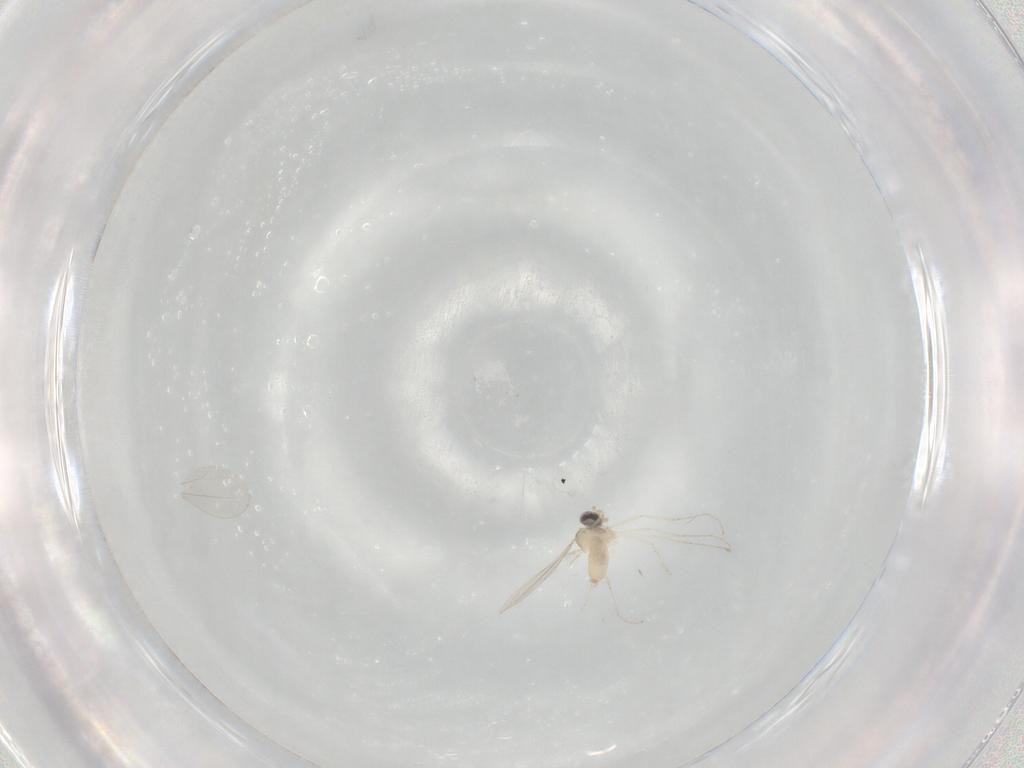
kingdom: Animalia
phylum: Arthropoda
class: Insecta
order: Diptera
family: Cecidomyiidae
